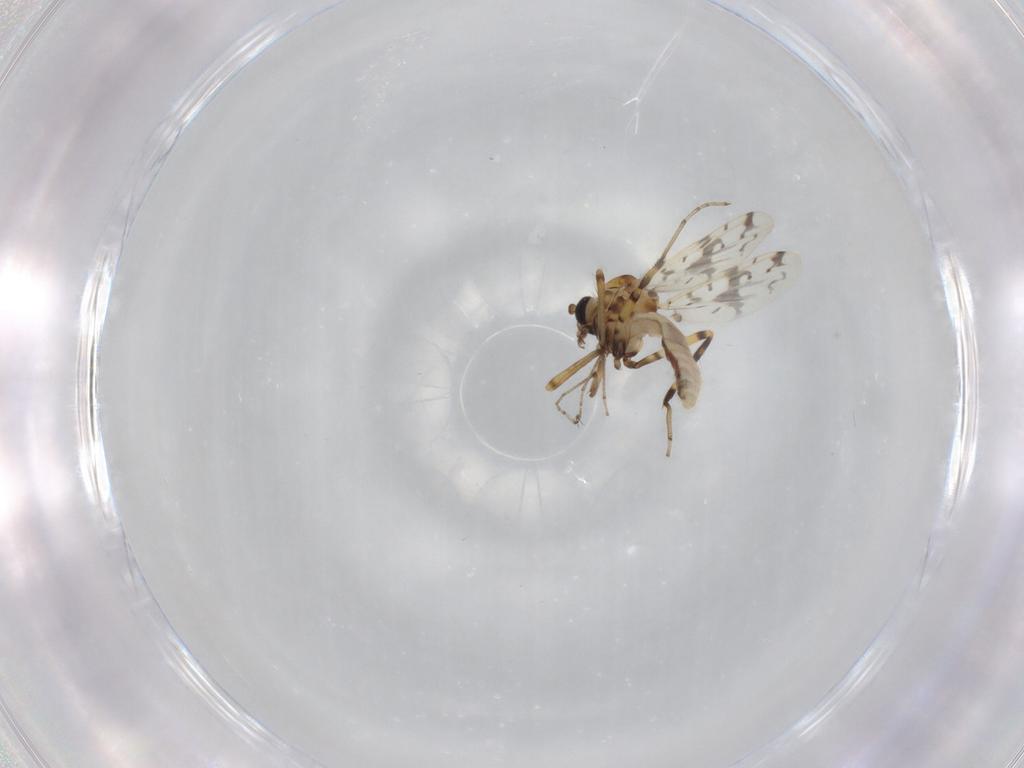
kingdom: Animalia
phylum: Arthropoda
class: Insecta
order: Diptera
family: Ceratopogonidae
